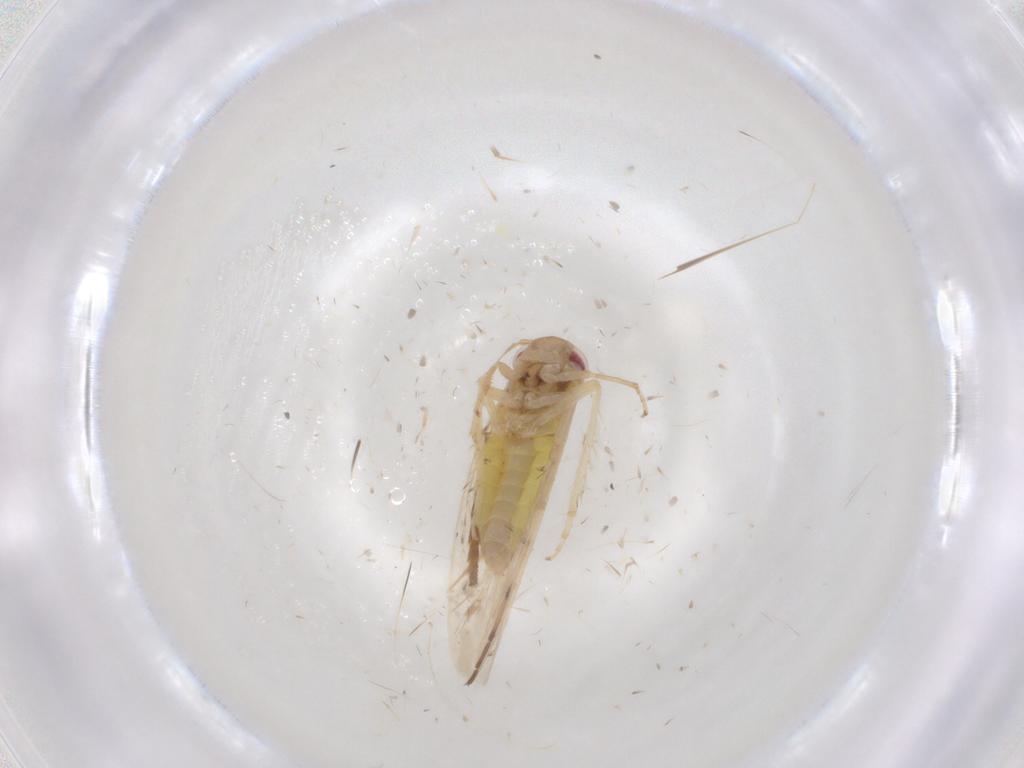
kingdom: Animalia
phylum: Arthropoda
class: Insecta
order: Hemiptera
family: Cicadellidae
